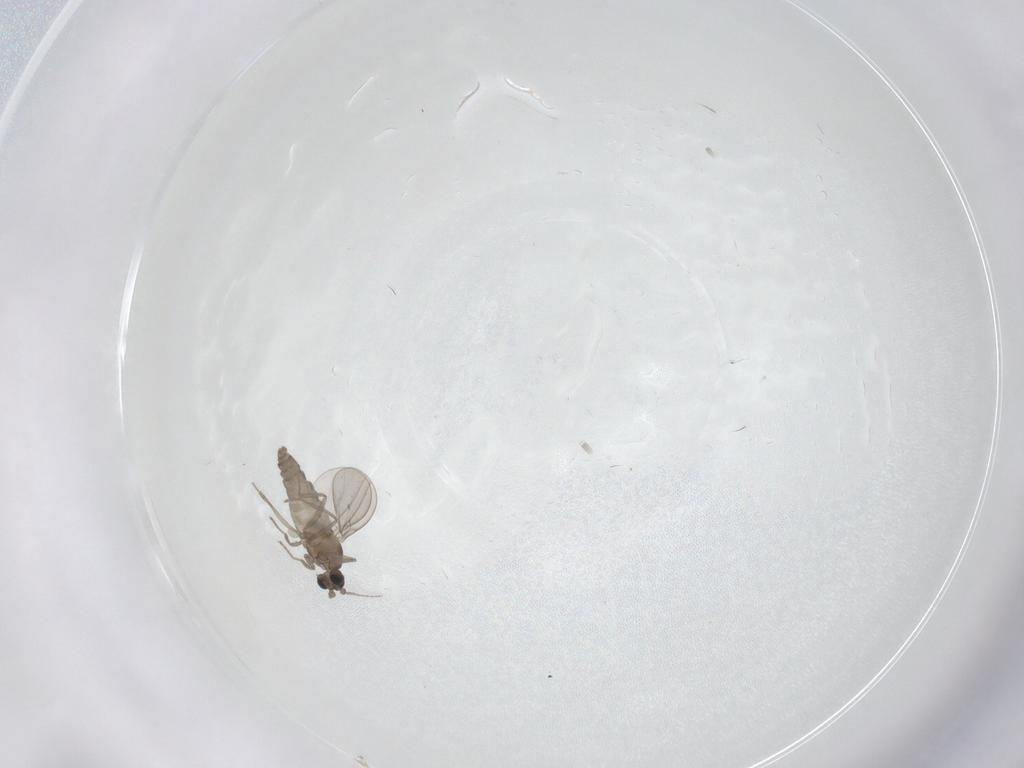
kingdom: Animalia
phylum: Arthropoda
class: Insecta
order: Diptera
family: Cecidomyiidae
